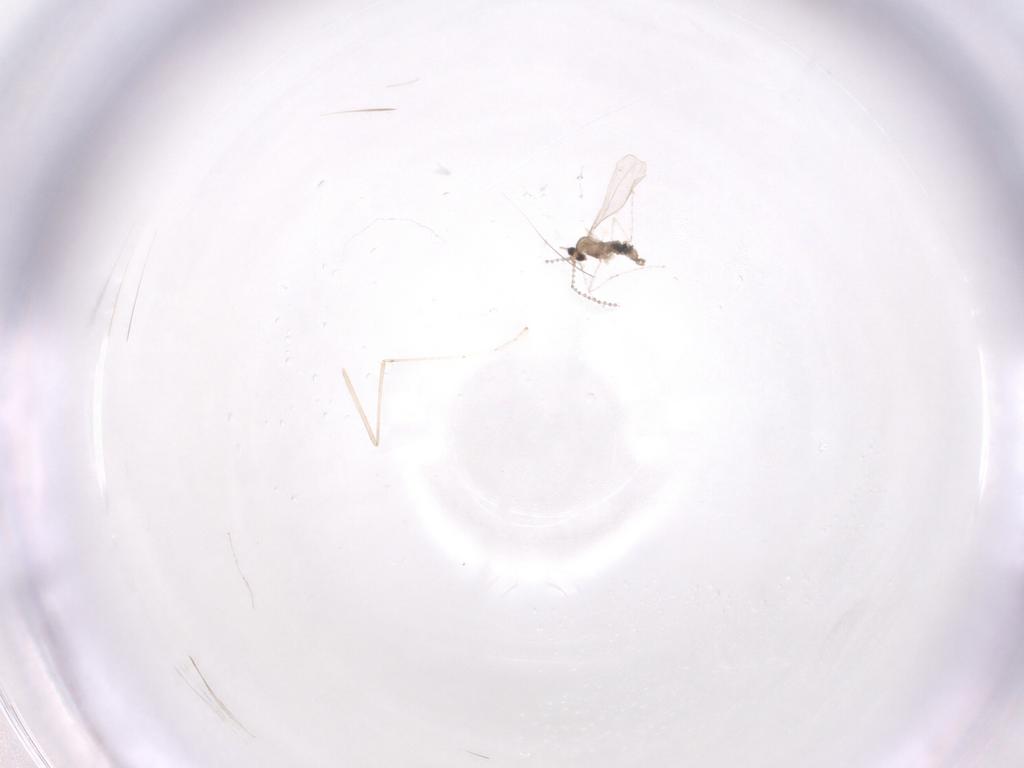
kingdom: Animalia
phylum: Arthropoda
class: Insecta
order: Diptera
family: Cecidomyiidae
